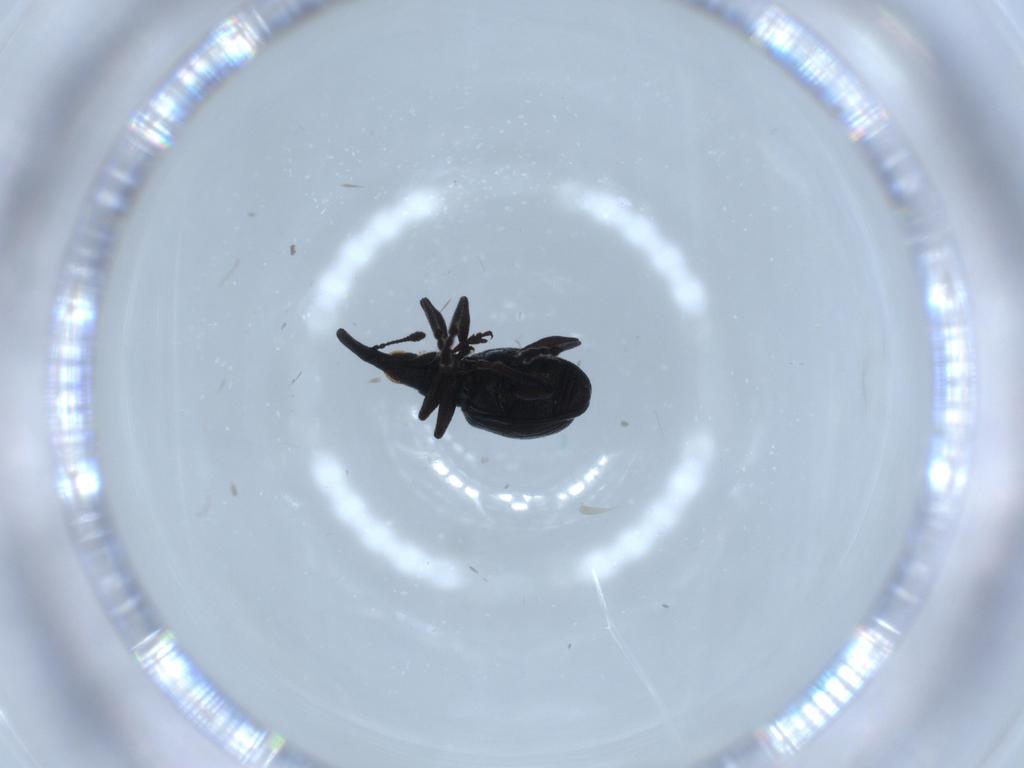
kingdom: Animalia
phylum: Arthropoda
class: Insecta
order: Coleoptera
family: Brentidae
